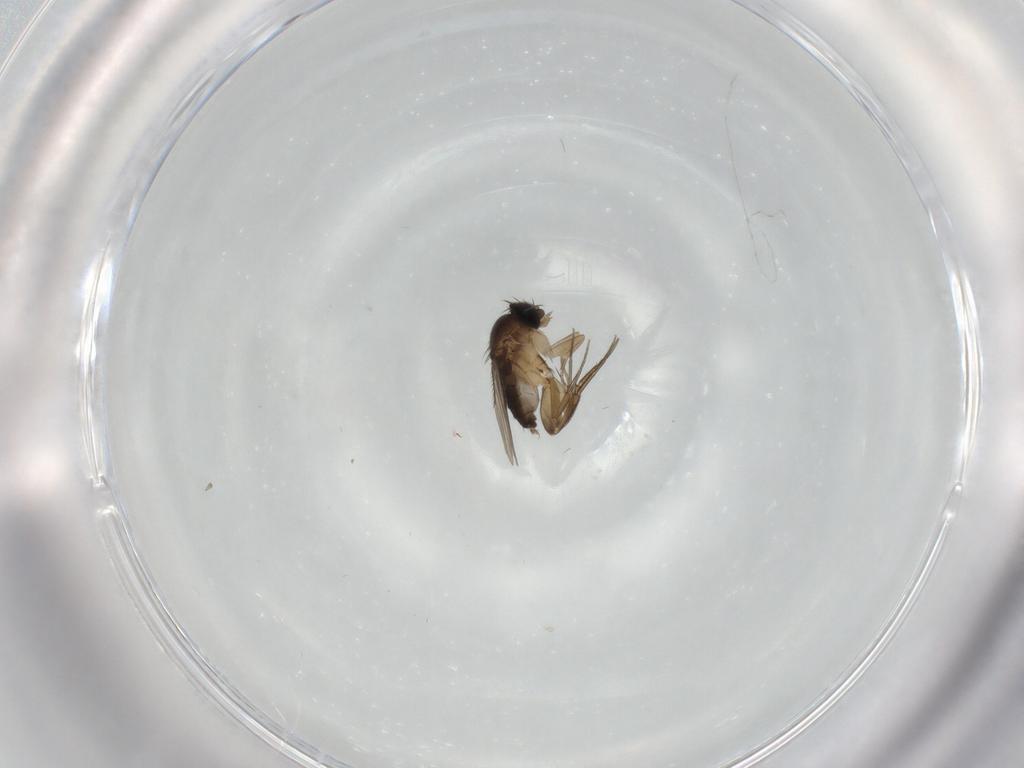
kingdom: Animalia
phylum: Arthropoda
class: Insecta
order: Diptera
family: Phoridae
